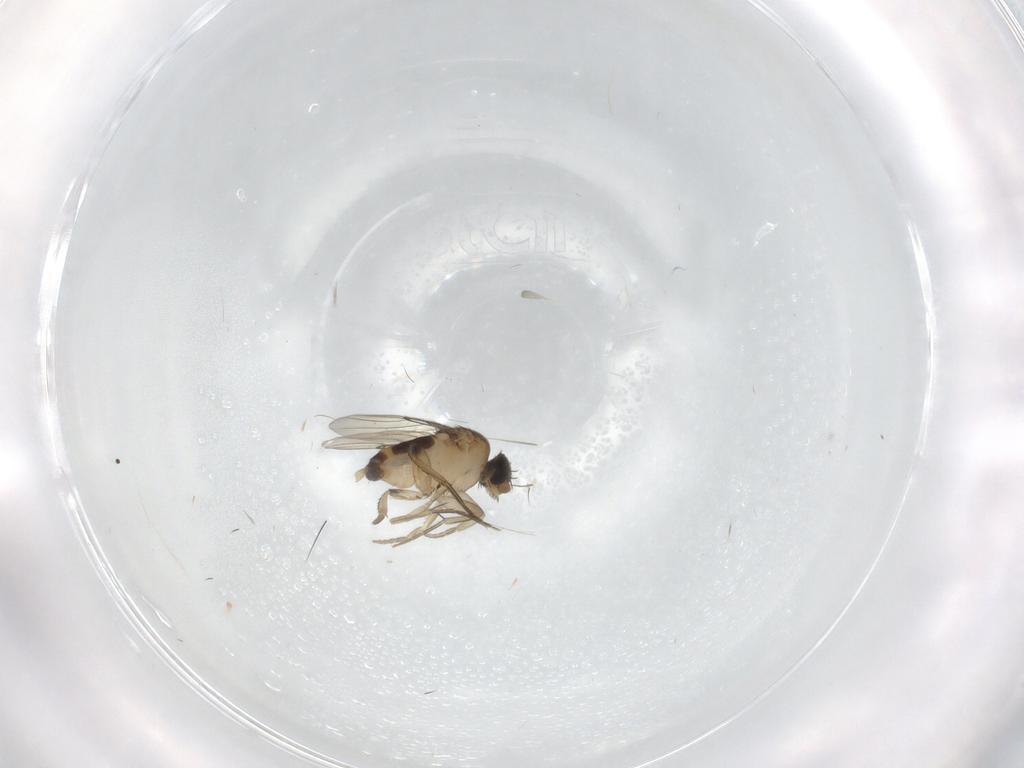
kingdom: Animalia
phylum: Arthropoda
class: Insecta
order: Diptera
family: Phoridae
